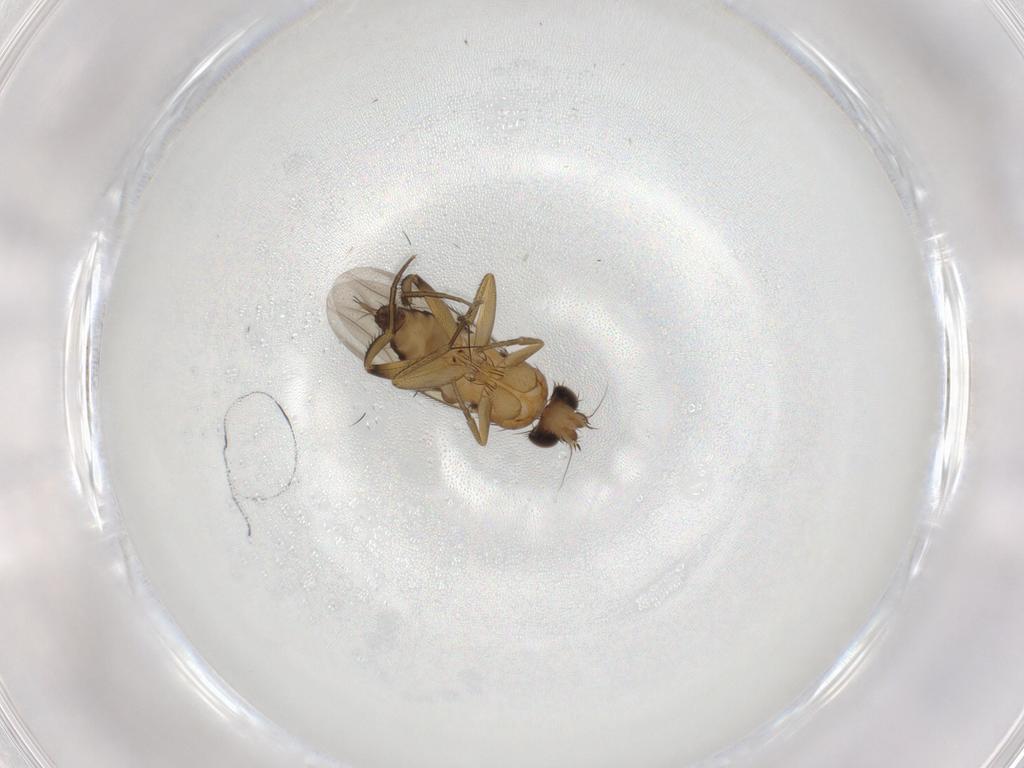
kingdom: Animalia
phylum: Arthropoda
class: Insecta
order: Diptera
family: Phoridae
